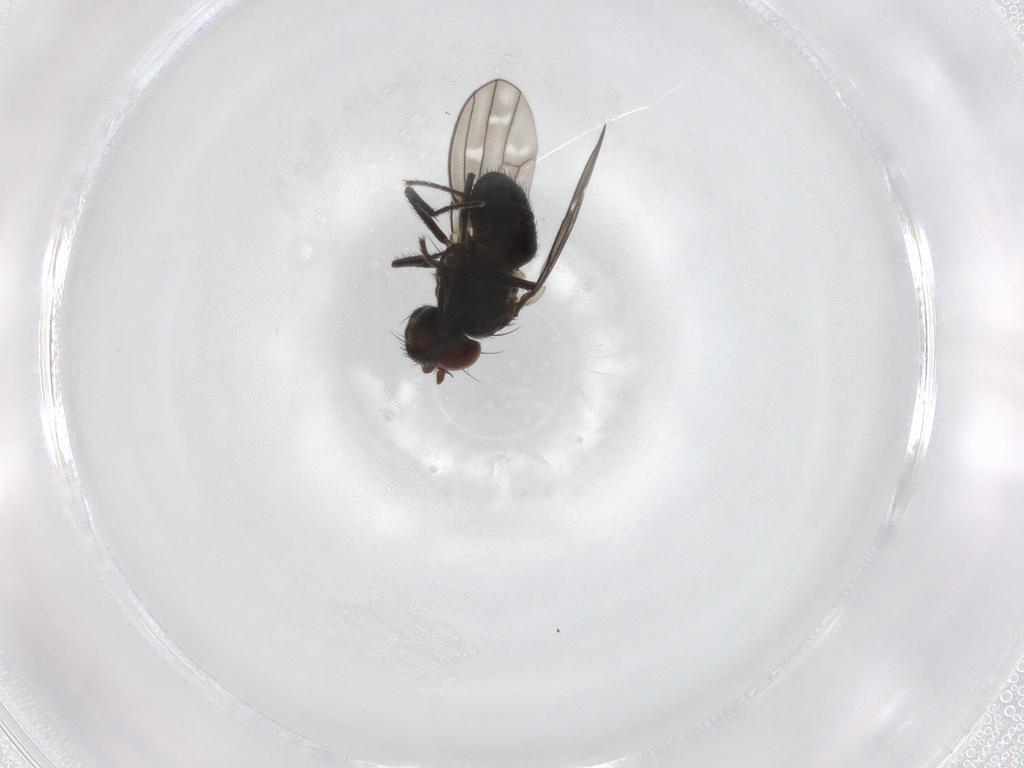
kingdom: Animalia
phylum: Arthropoda
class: Insecta
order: Diptera
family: Ephydridae
